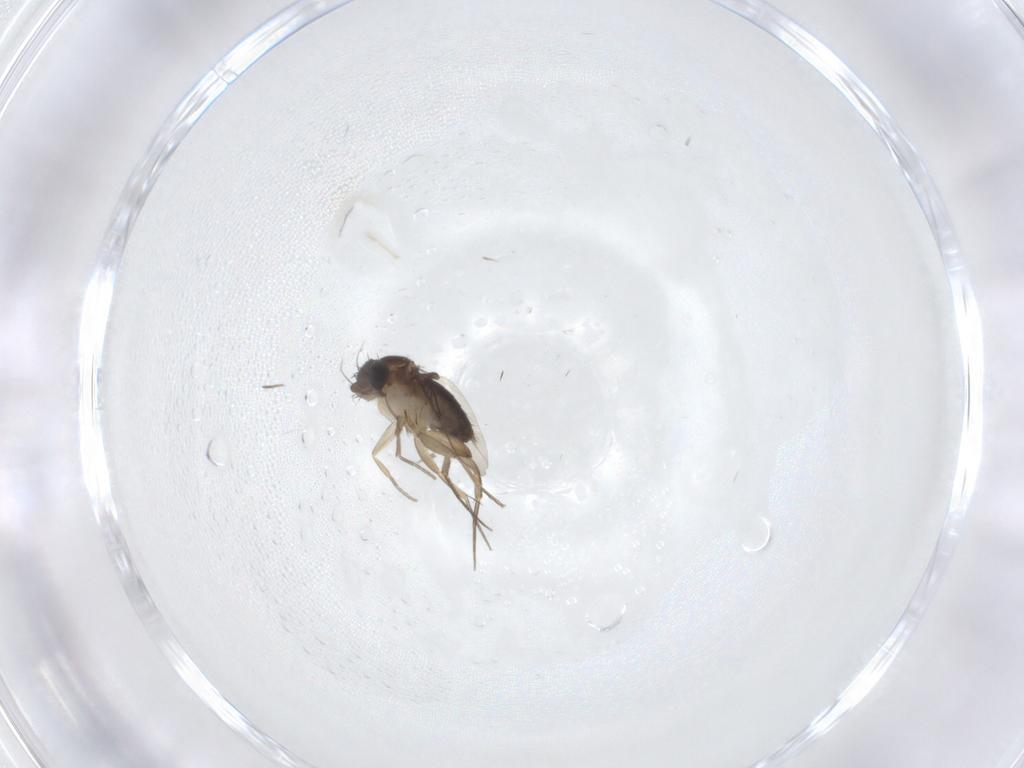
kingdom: Animalia
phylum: Arthropoda
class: Insecta
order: Diptera
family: Phoridae
